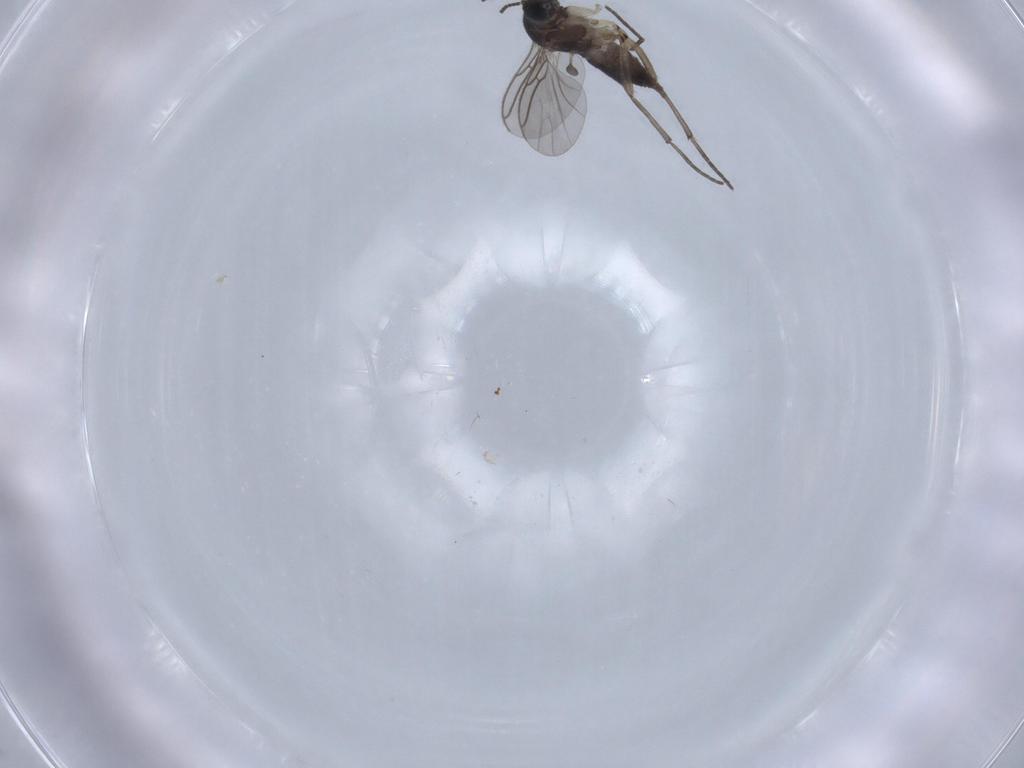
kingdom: Animalia
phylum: Arthropoda
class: Insecta
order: Diptera
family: Sciaridae
